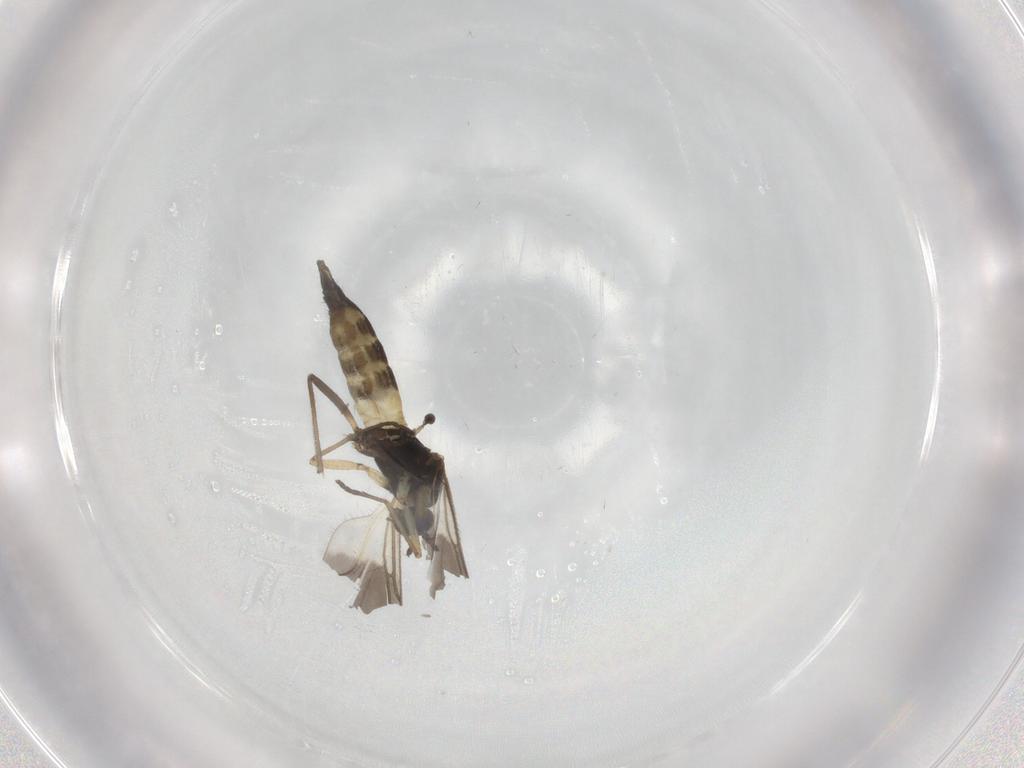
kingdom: Animalia
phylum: Arthropoda
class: Insecta
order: Diptera
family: Sciaridae
